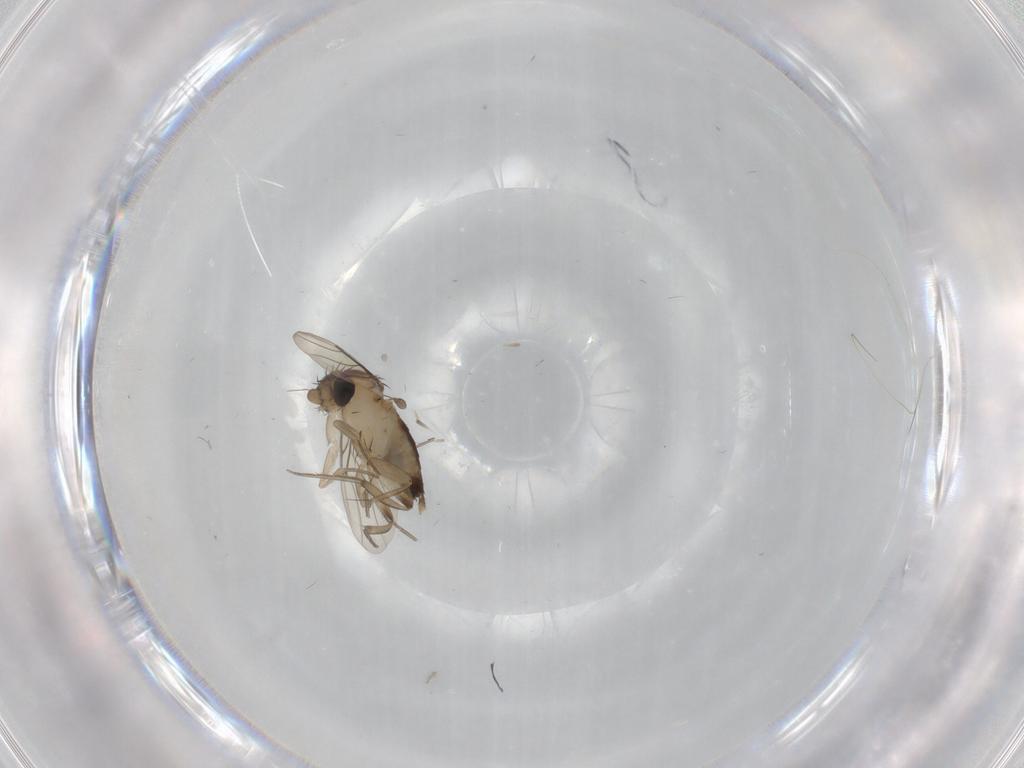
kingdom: Animalia
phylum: Arthropoda
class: Insecta
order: Diptera
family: Phoridae
